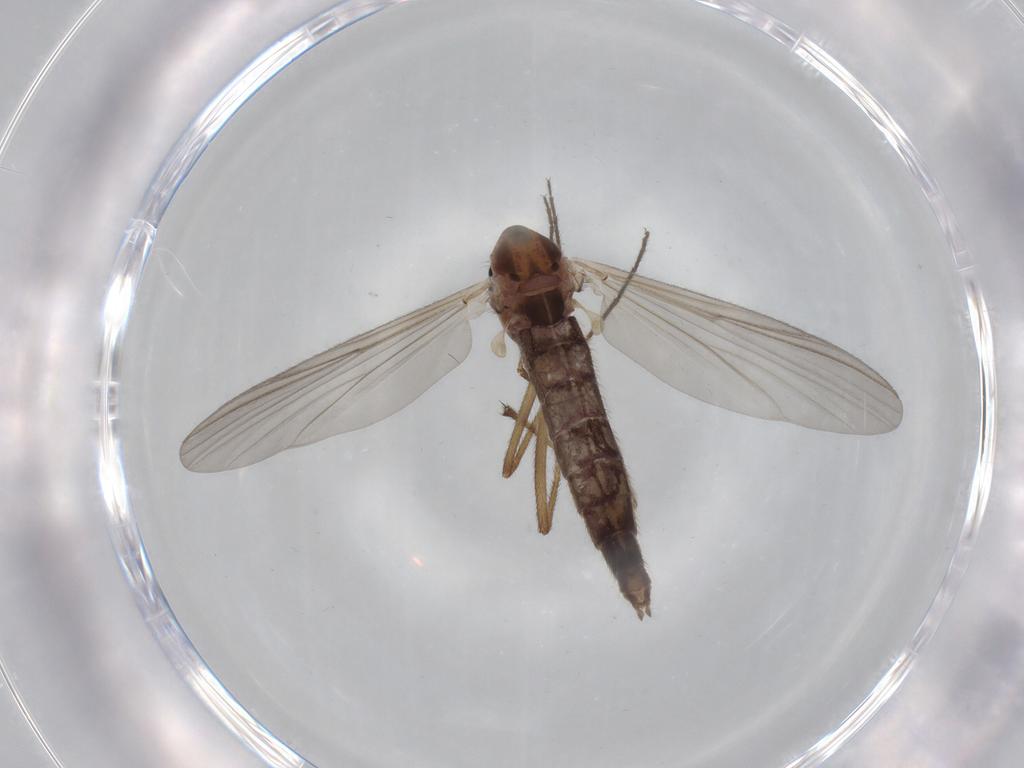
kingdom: Animalia
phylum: Arthropoda
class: Insecta
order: Diptera
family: Chironomidae
